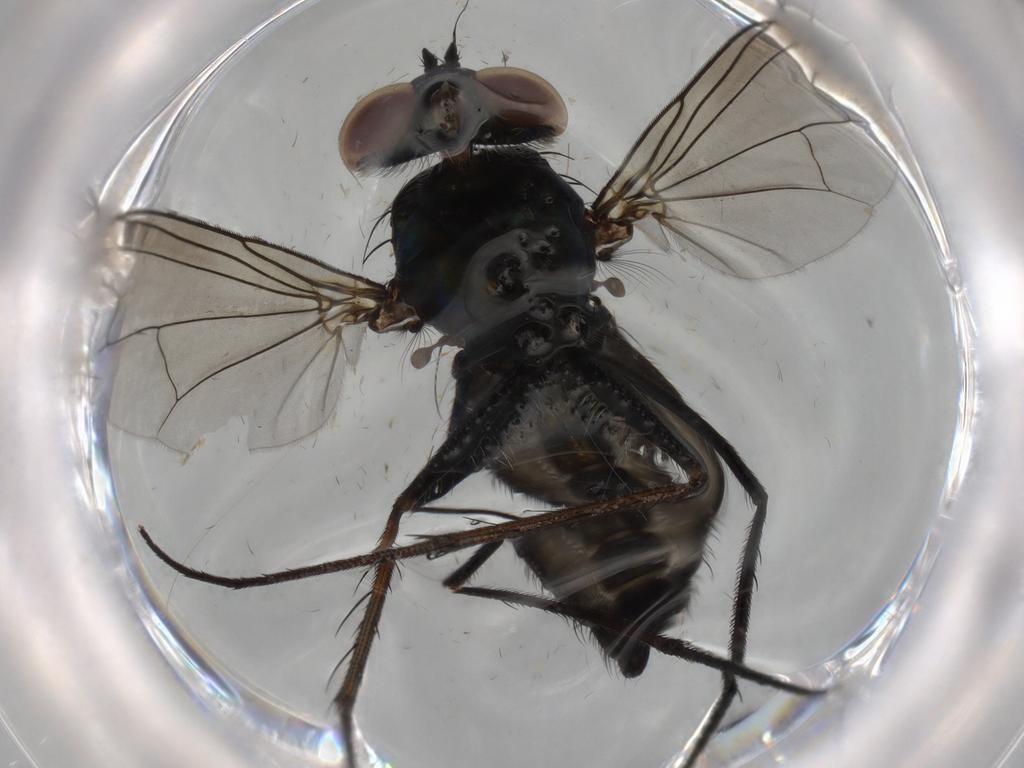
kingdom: Animalia
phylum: Arthropoda
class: Insecta
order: Diptera
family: Dolichopodidae
